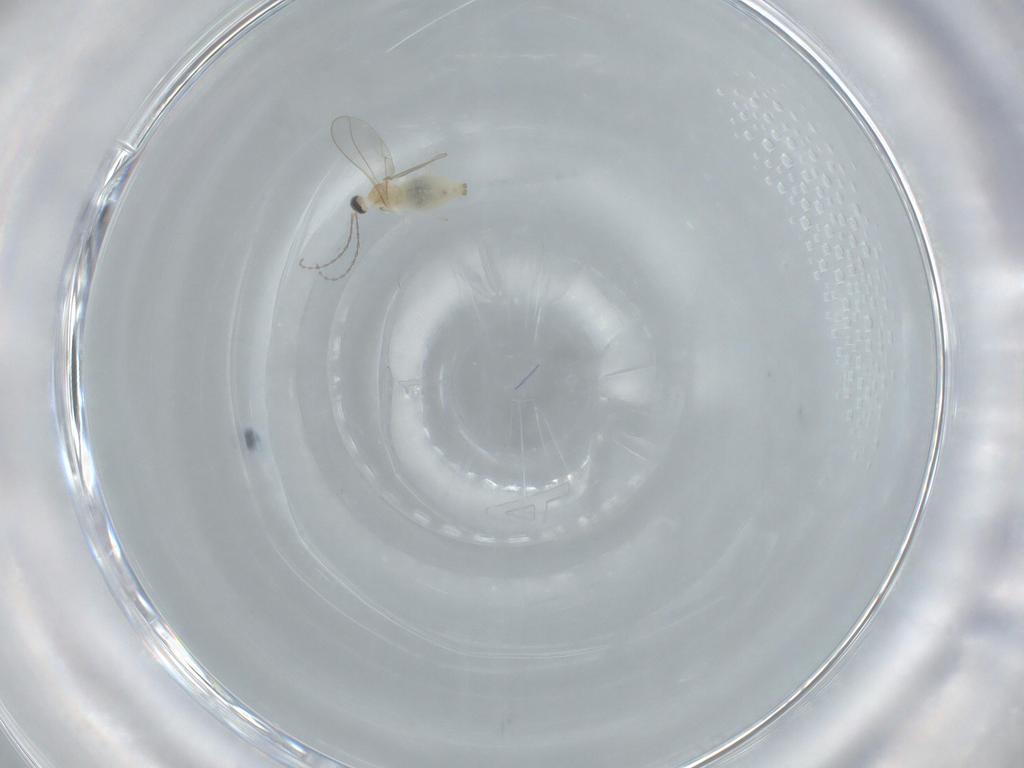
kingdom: Animalia
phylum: Arthropoda
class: Insecta
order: Diptera
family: Cecidomyiidae
